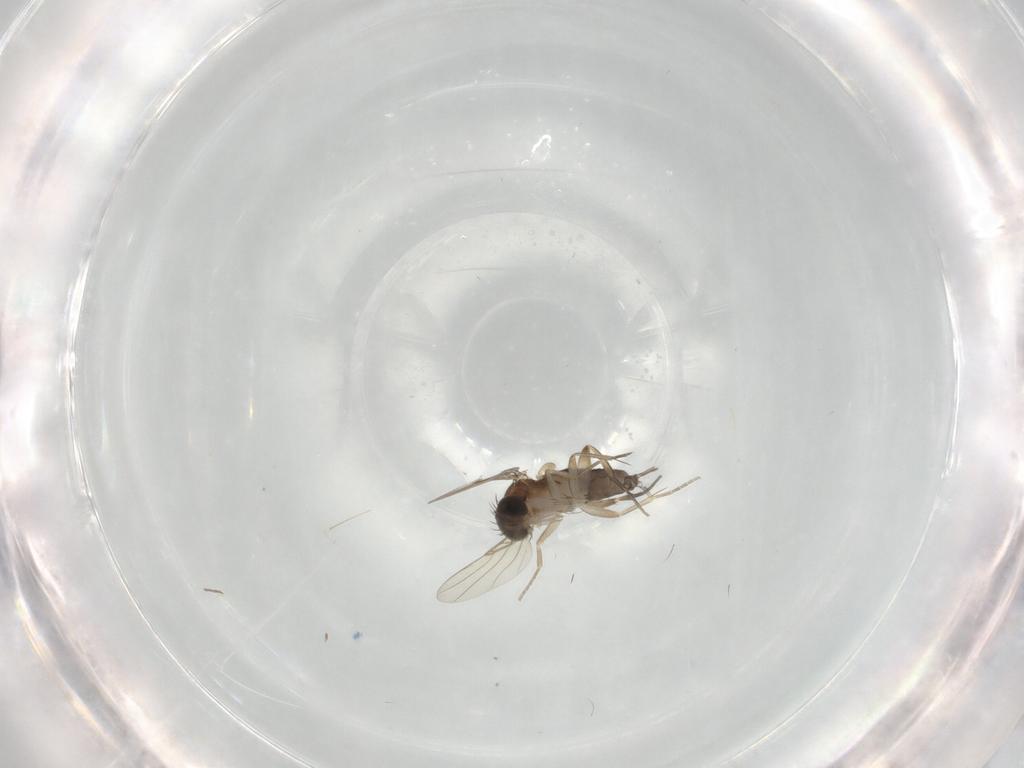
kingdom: Animalia
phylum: Arthropoda
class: Insecta
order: Diptera
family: Phoridae
